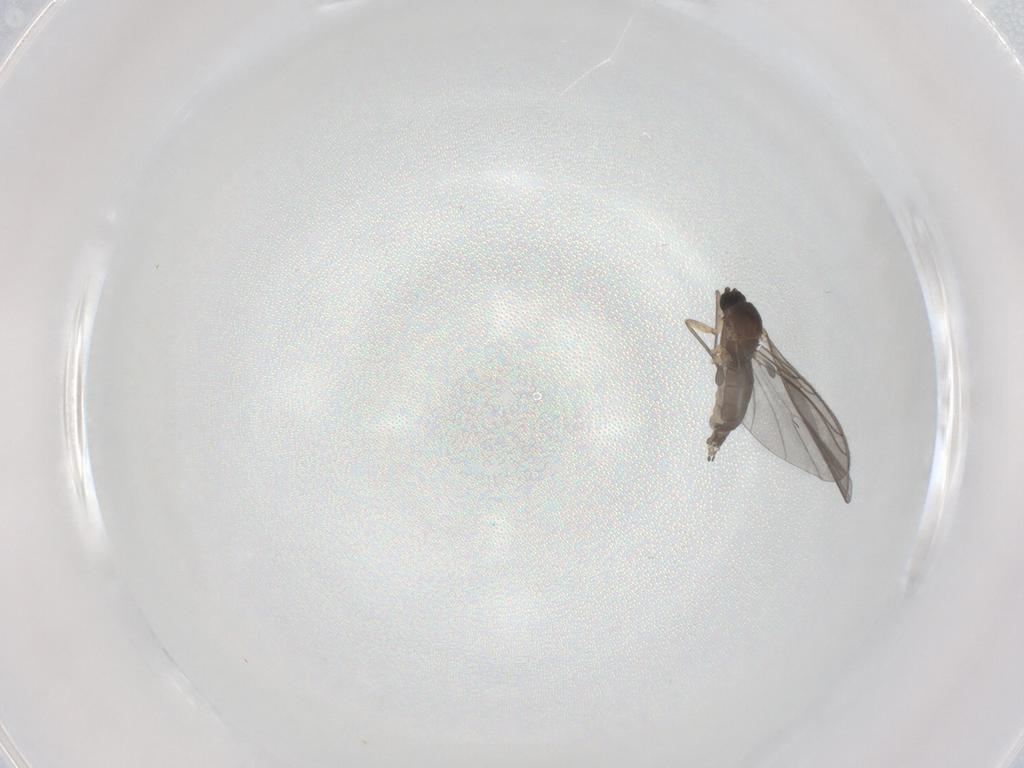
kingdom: Animalia
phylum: Arthropoda
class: Insecta
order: Diptera
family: Sciaridae
